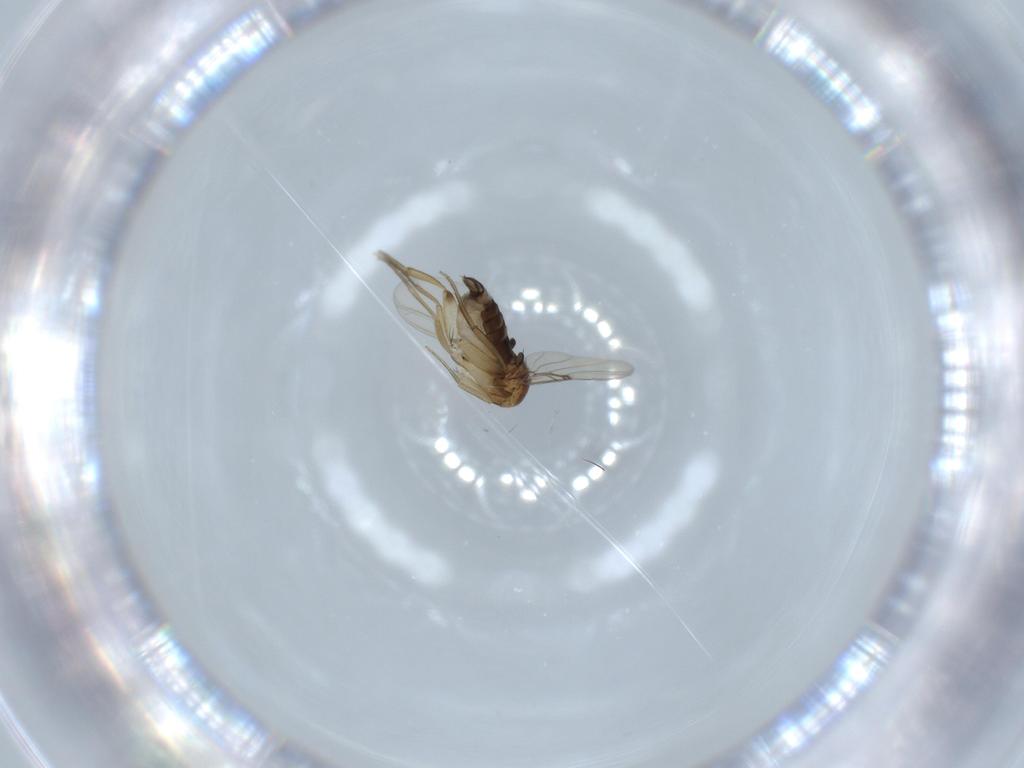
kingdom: Animalia
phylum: Arthropoda
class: Insecta
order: Diptera
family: Phoridae
